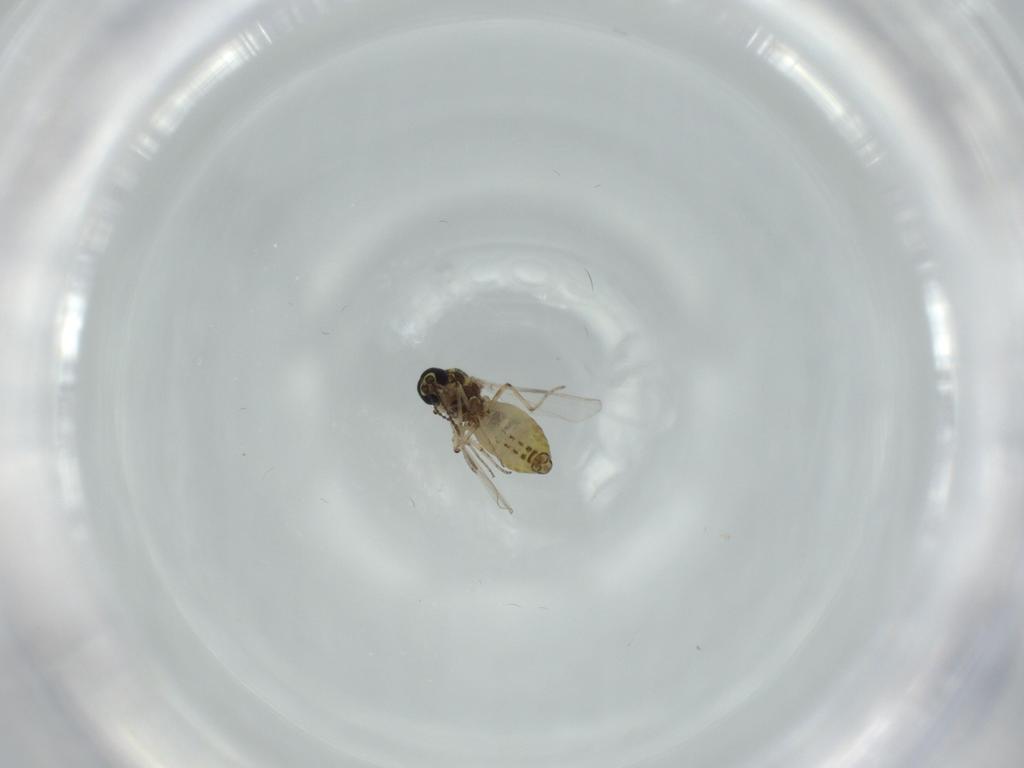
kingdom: Animalia
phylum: Arthropoda
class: Insecta
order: Diptera
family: Ceratopogonidae
